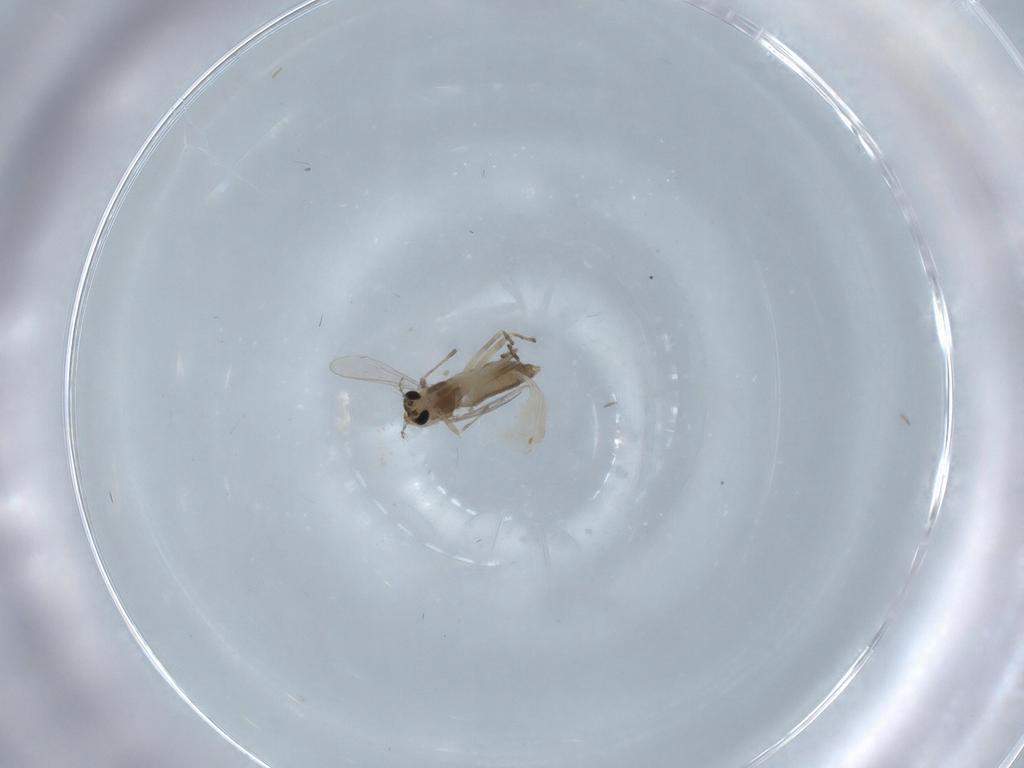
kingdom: Animalia
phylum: Arthropoda
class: Insecta
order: Diptera
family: Chironomidae
